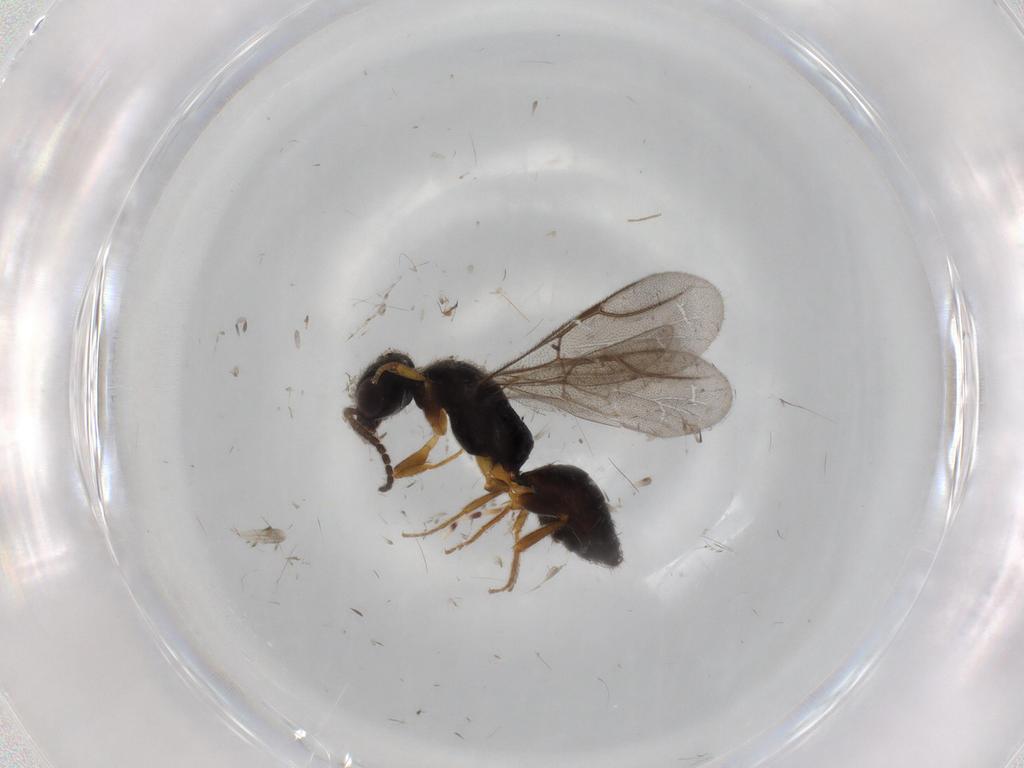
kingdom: Animalia
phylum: Arthropoda
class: Insecta
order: Hymenoptera
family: Bethylidae
